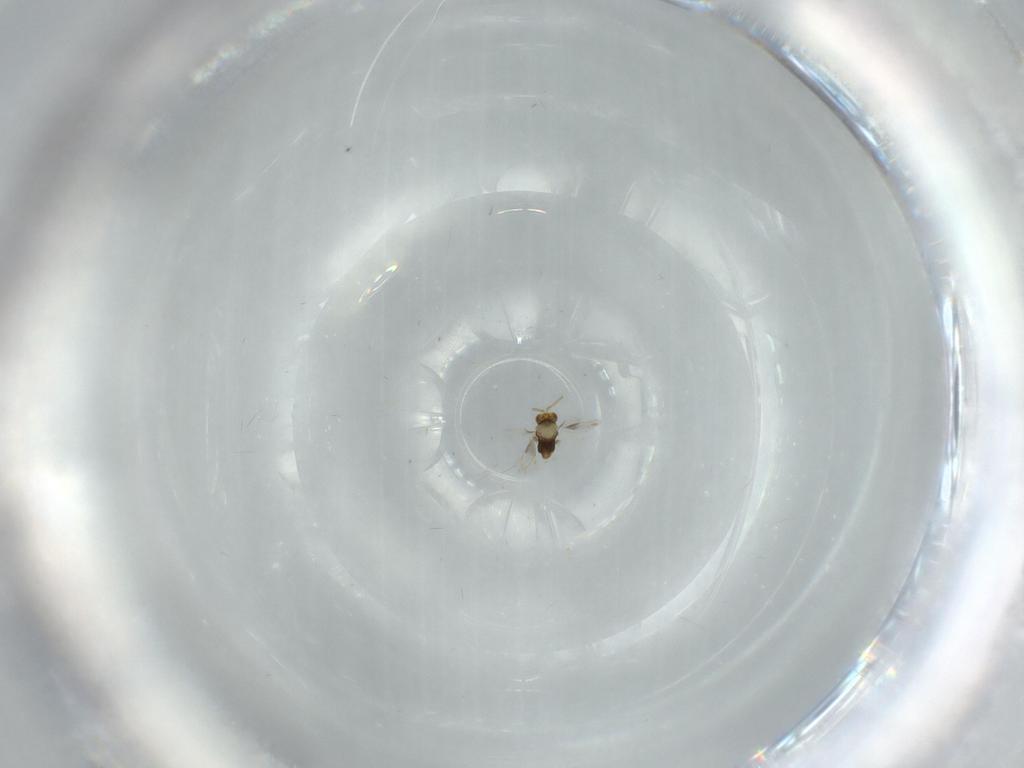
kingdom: Animalia
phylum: Arthropoda
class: Insecta
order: Hymenoptera
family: Aphelinidae
